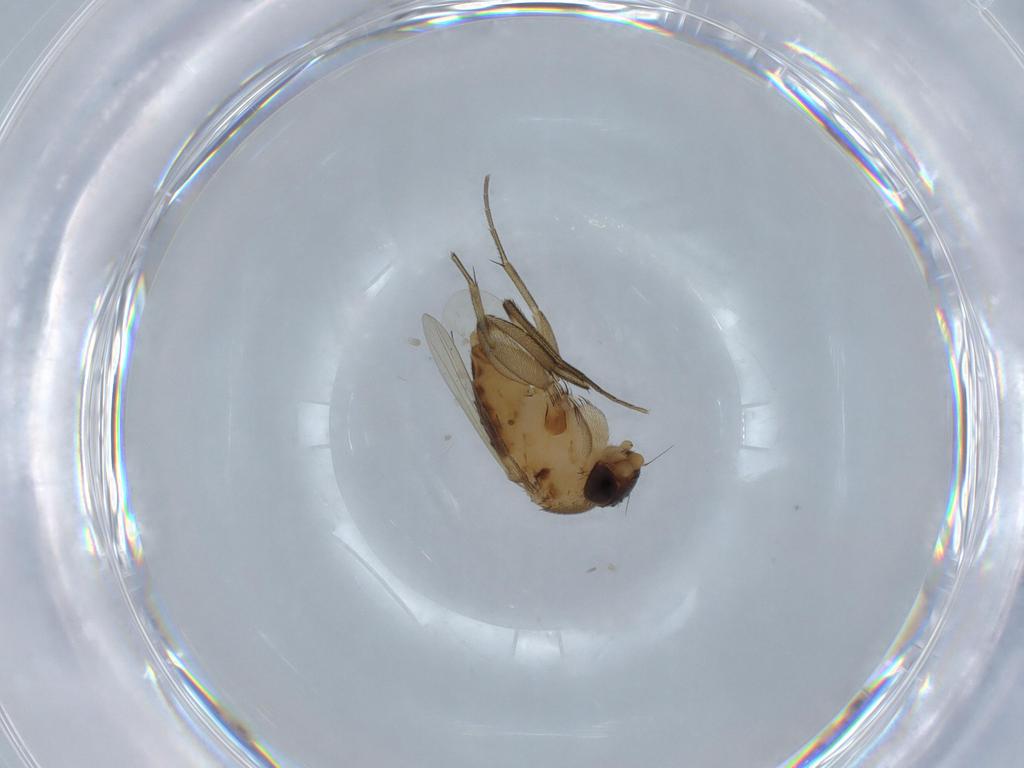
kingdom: Animalia
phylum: Arthropoda
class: Insecta
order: Diptera
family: Phoridae
